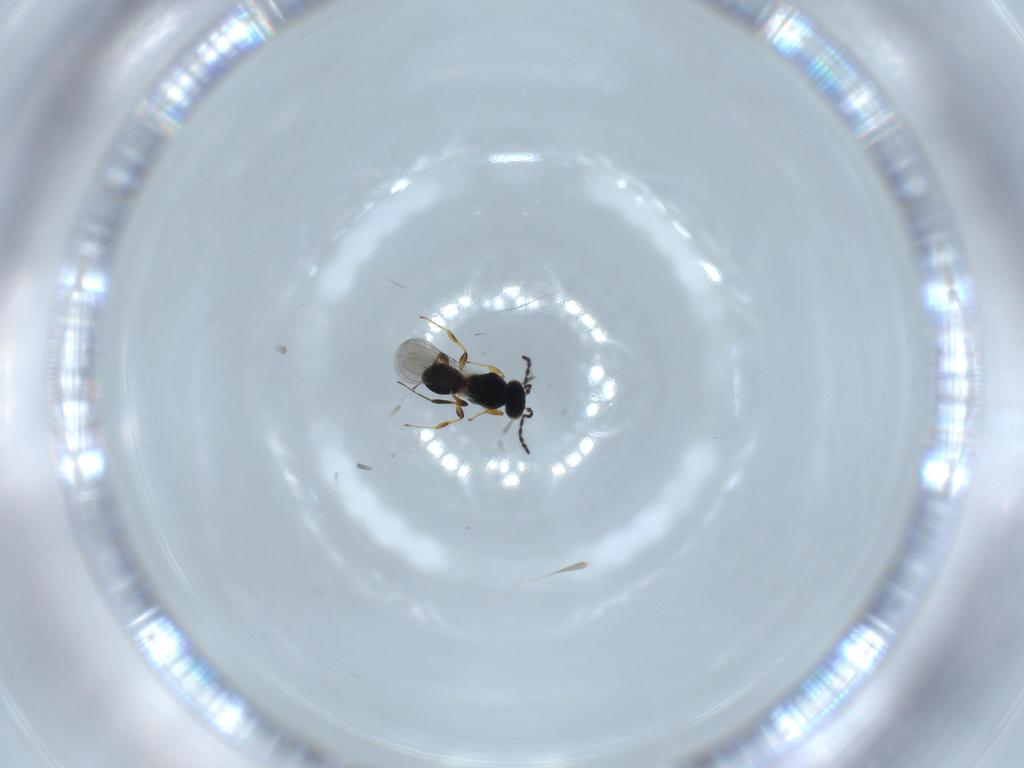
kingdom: Animalia
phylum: Arthropoda
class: Insecta
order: Hymenoptera
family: Platygastridae
